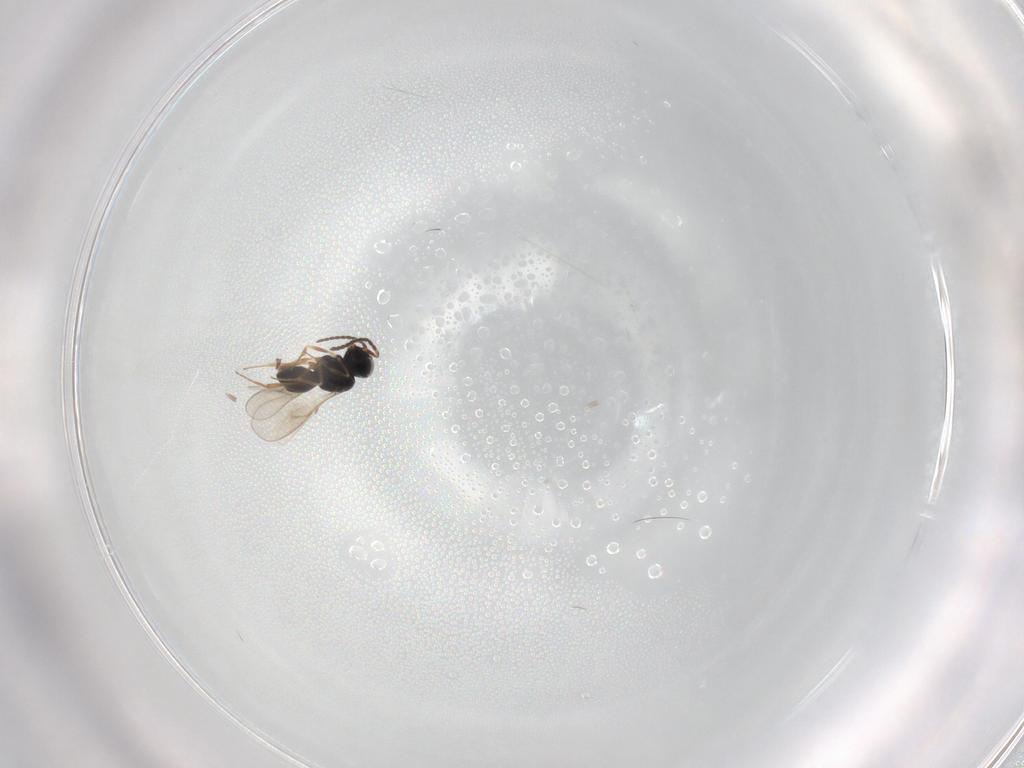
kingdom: Animalia
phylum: Arthropoda
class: Insecta
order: Hymenoptera
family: Scelionidae
